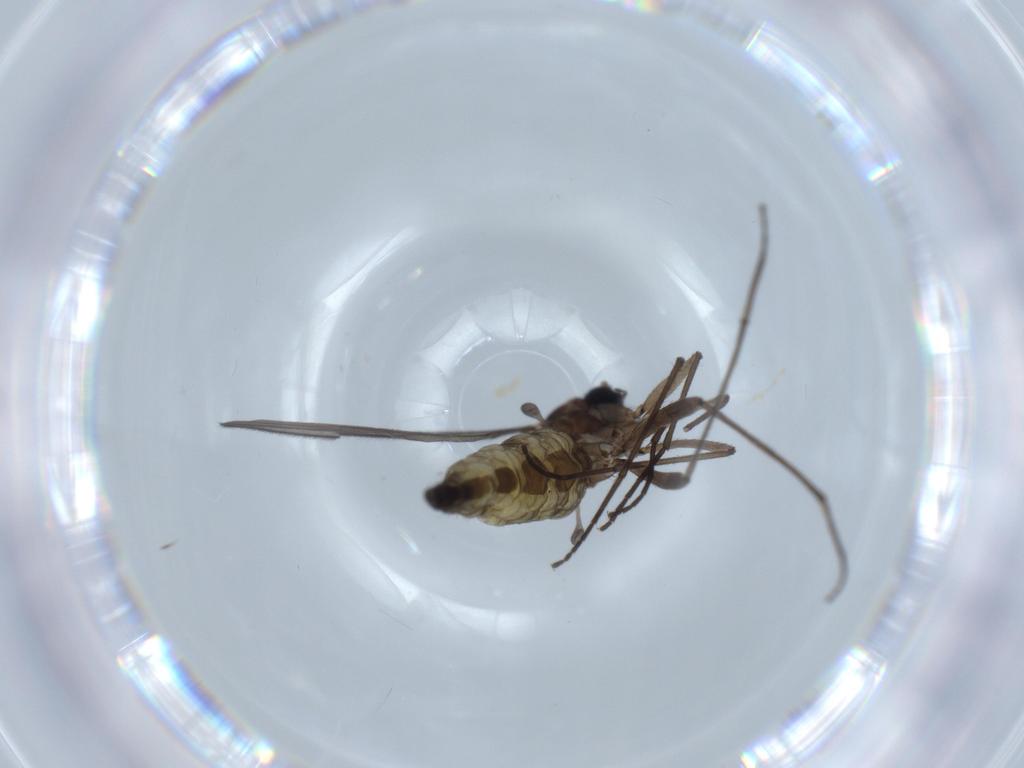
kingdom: Animalia
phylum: Arthropoda
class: Insecta
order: Diptera
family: Sciaridae
